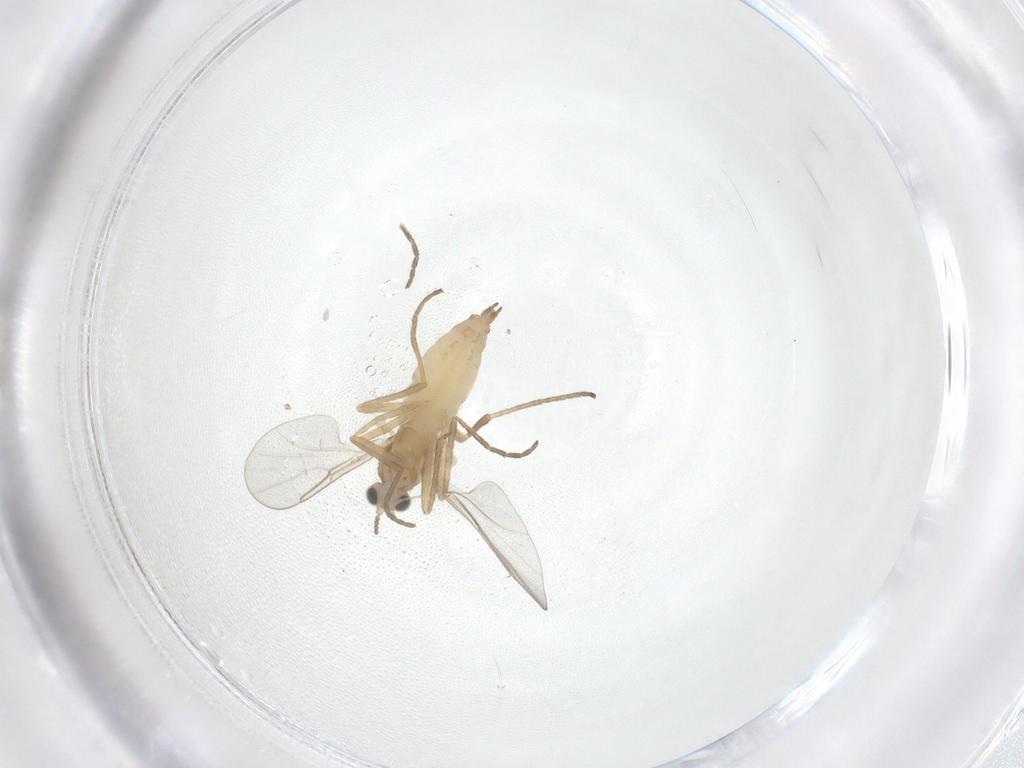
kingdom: Animalia
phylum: Arthropoda
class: Insecta
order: Diptera
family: Cecidomyiidae
